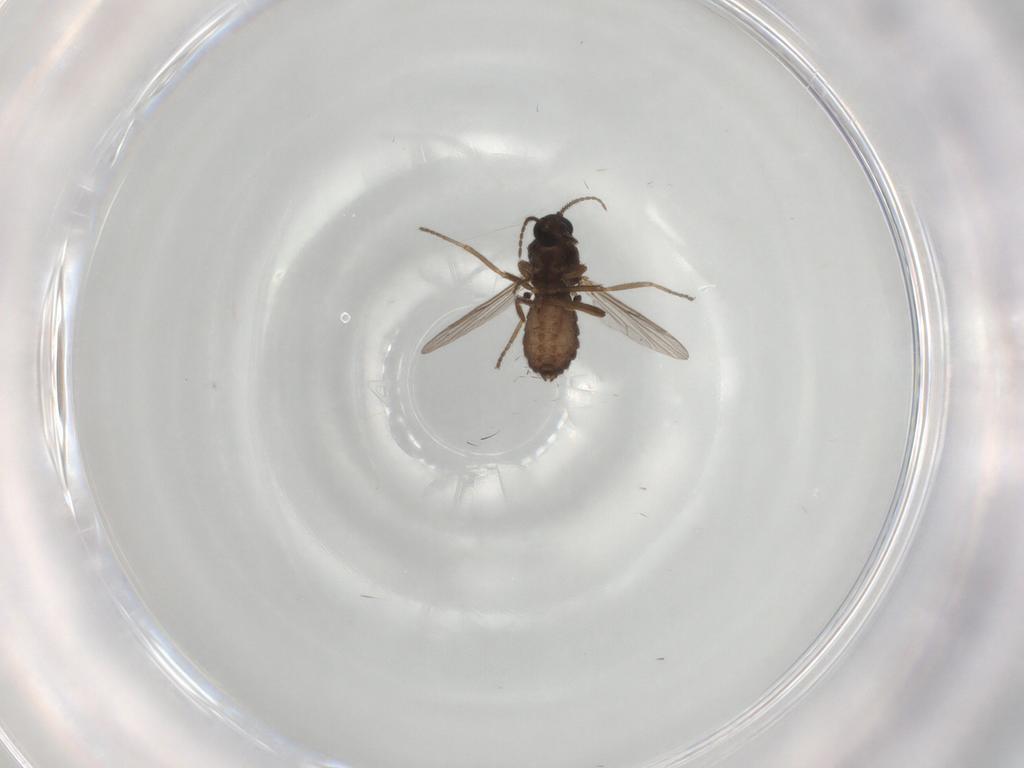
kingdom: Animalia
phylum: Arthropoda
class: Insecta
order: Diptera
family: Ceratopogonidae
